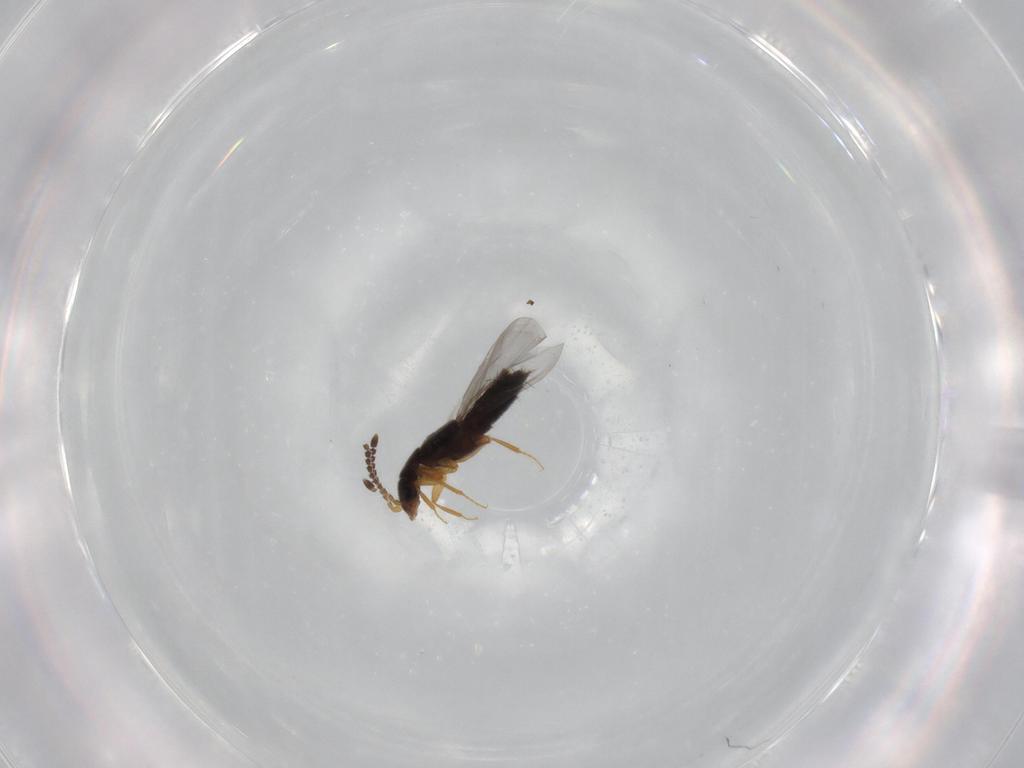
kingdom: Animalia
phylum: Arthropoda
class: Insecta
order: Coleoptera
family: Staphylinidae
